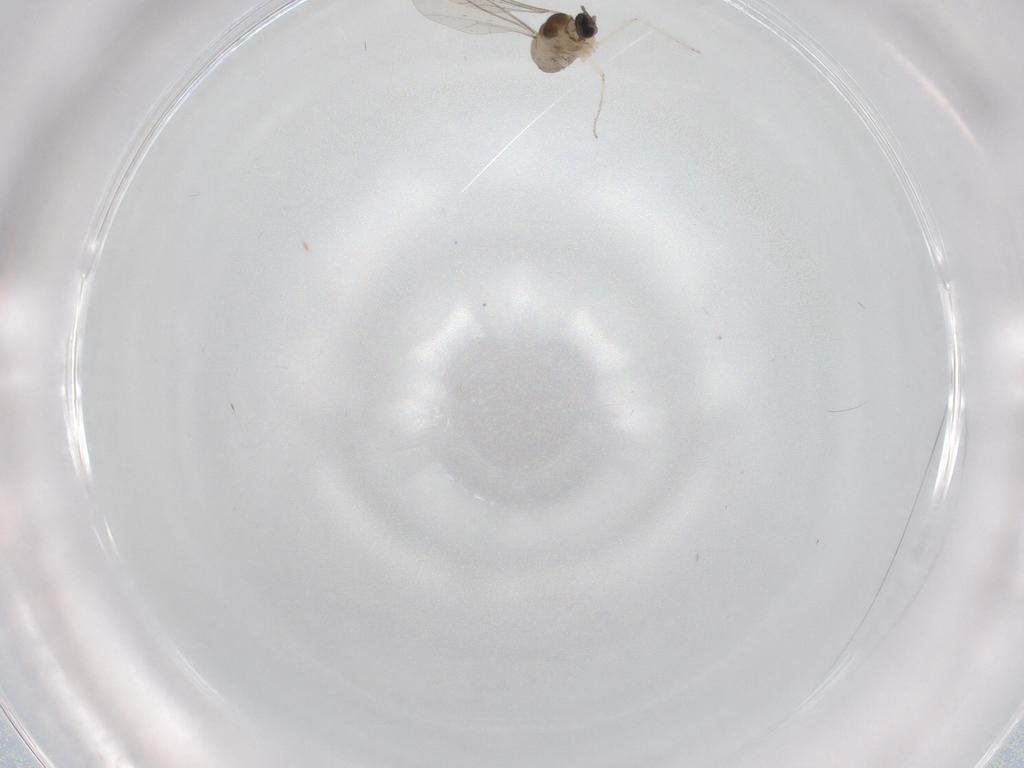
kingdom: Animalia
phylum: Arthropoda
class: Insecta
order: Diptera
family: Cecidomyiidae
